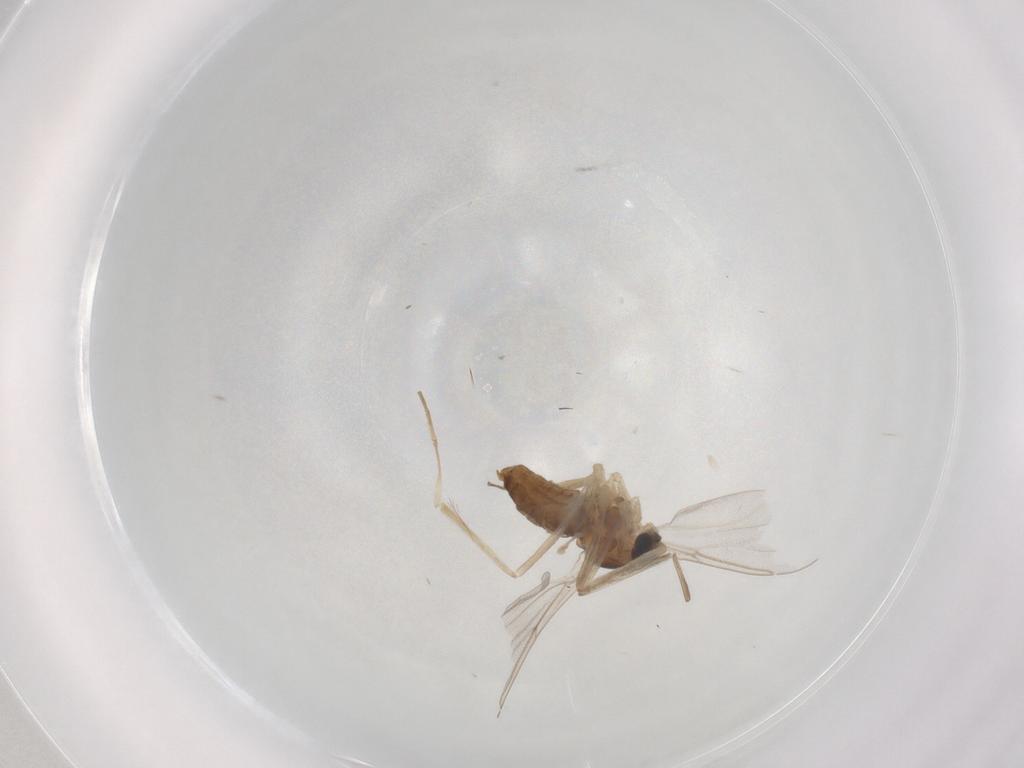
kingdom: Animalia
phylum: Arthropoda
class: Insecta
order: Diptera
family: Cecidomyiidae
